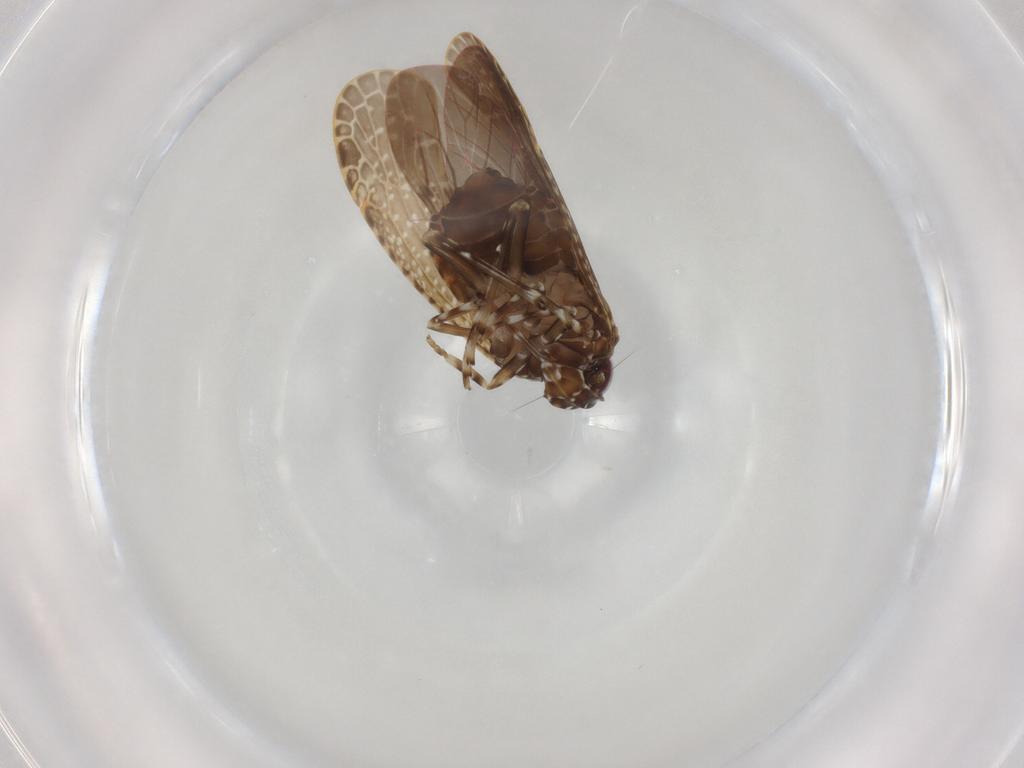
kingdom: Animalia
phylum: Arthropoda
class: Insecta
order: Hemiptera
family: Achilidae
